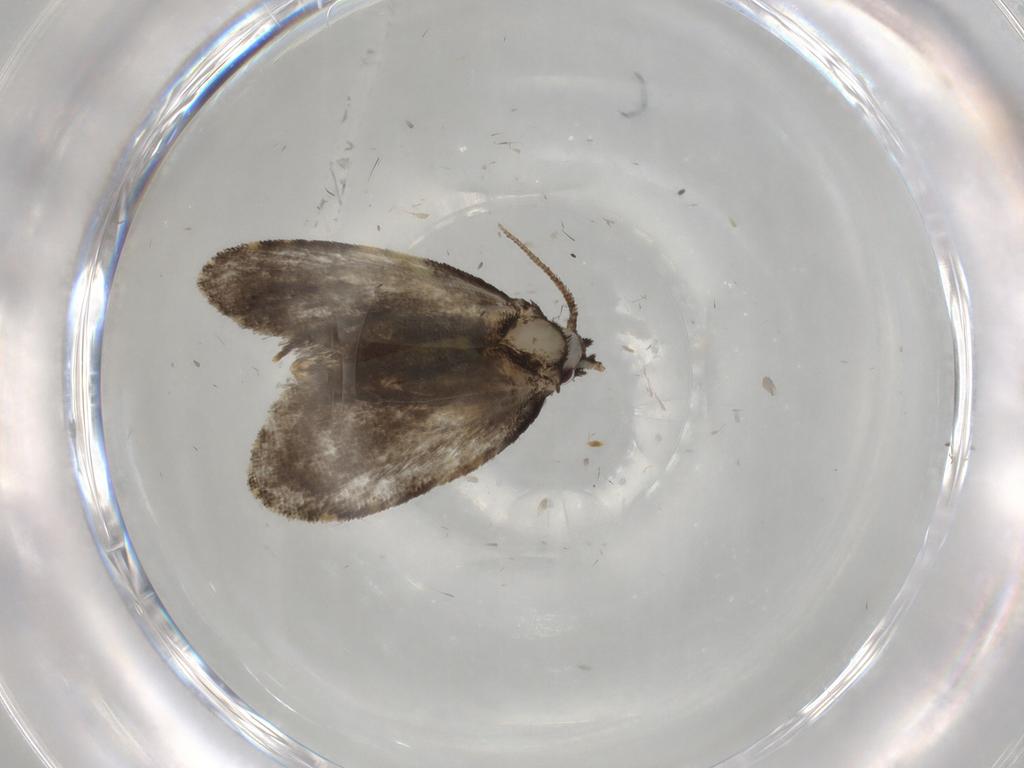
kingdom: Animalia
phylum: Arthropoda
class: Insecta
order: Lepidoptera
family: Psychidae
